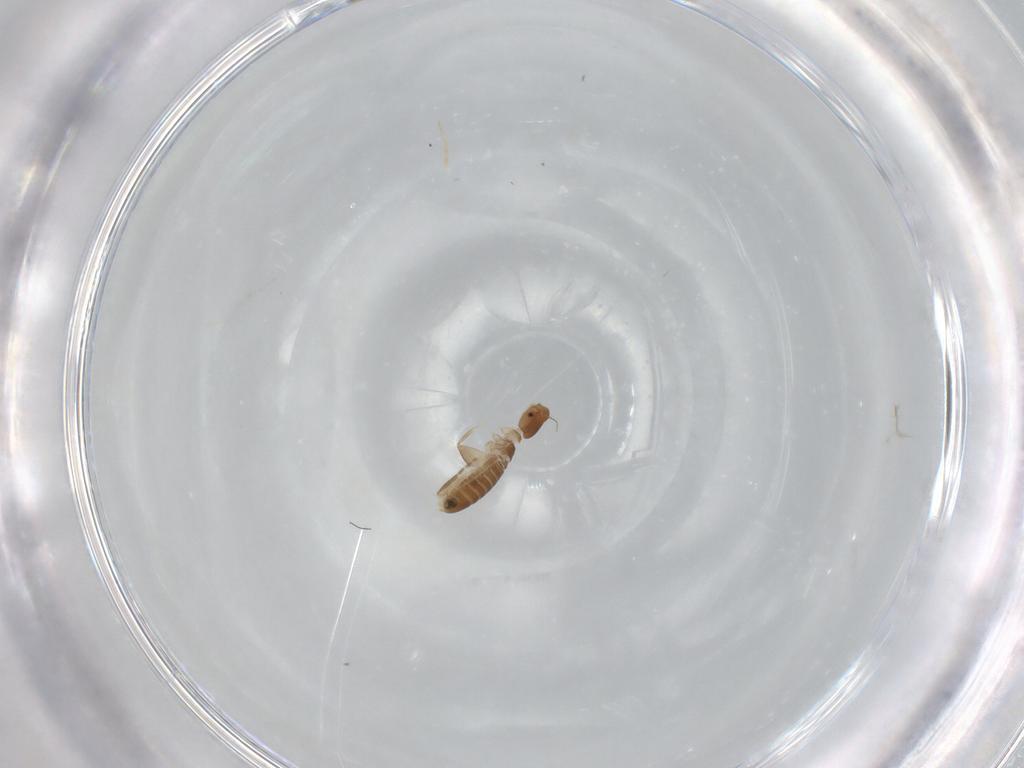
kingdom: Animalia
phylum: Arthropoda
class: Insecta
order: Psocodea
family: Liposcelididae
